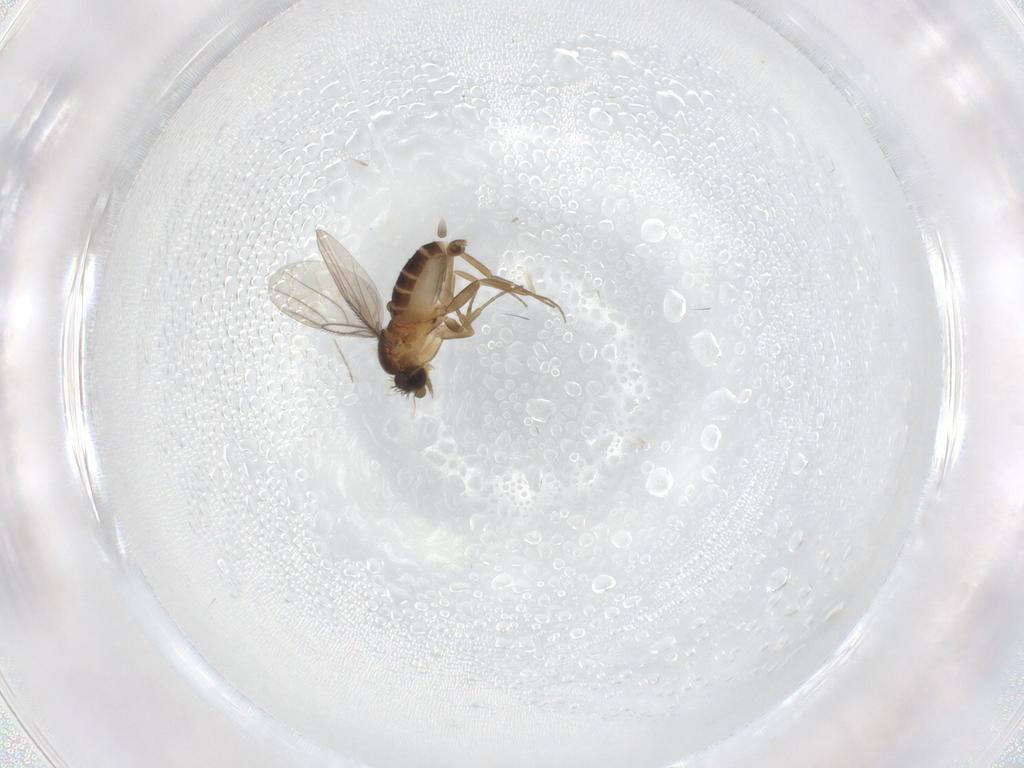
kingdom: Animalia
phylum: Arthropoda
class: Insecta
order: Diptera
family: Phoridae
